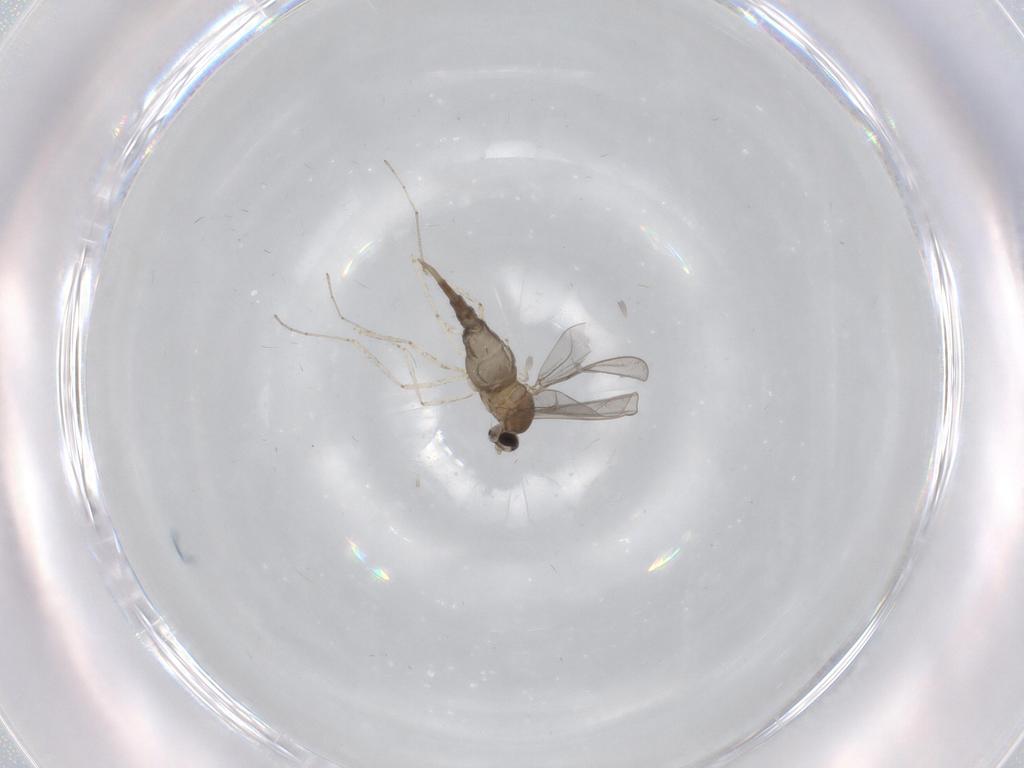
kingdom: Animalia
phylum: Arthropoda
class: Insecta
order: Diptera
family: Cecidomyiidae
